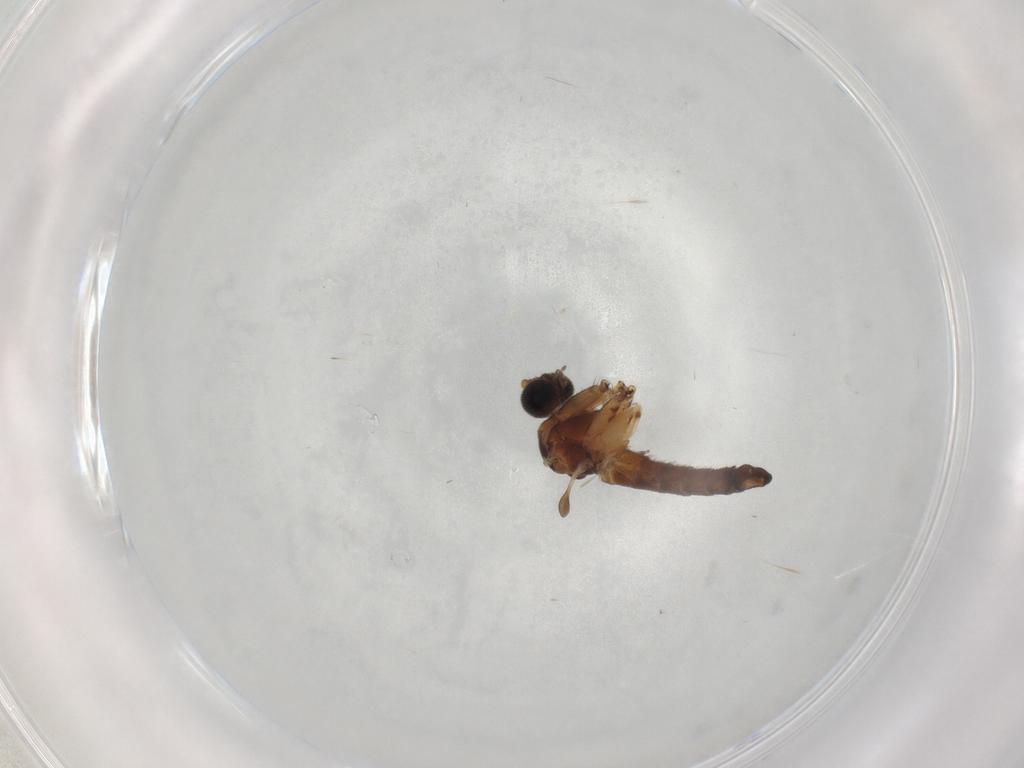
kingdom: Animalia
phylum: Arthropoda
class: Insecta
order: Diptera
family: Sciaridae
